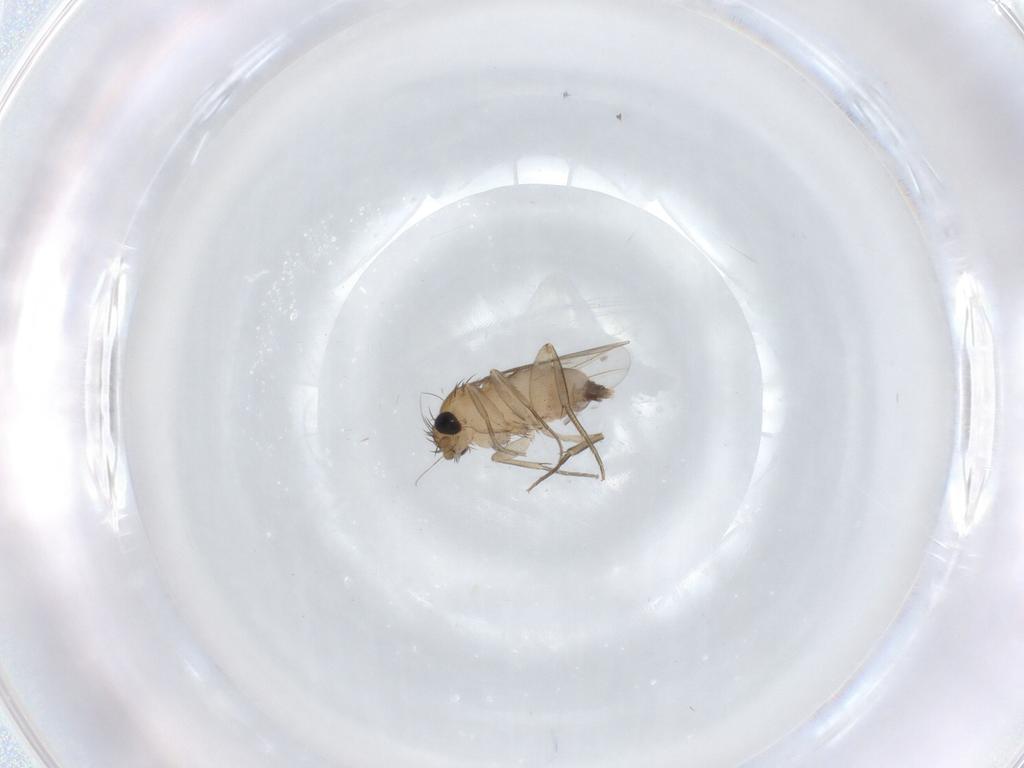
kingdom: Animalia
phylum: Arthropoda
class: Insecta
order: Diptera
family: Phoridae
